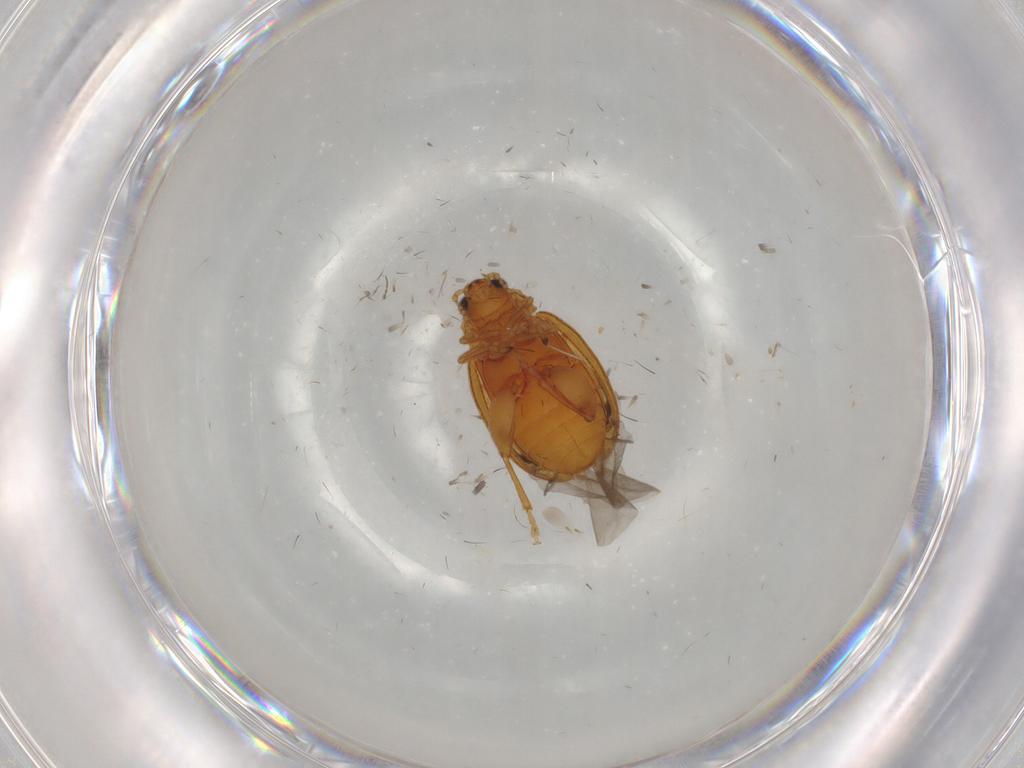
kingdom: Animalia
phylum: Arthropoda
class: Insecta
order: Coleoptera
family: Chrysomelidae
